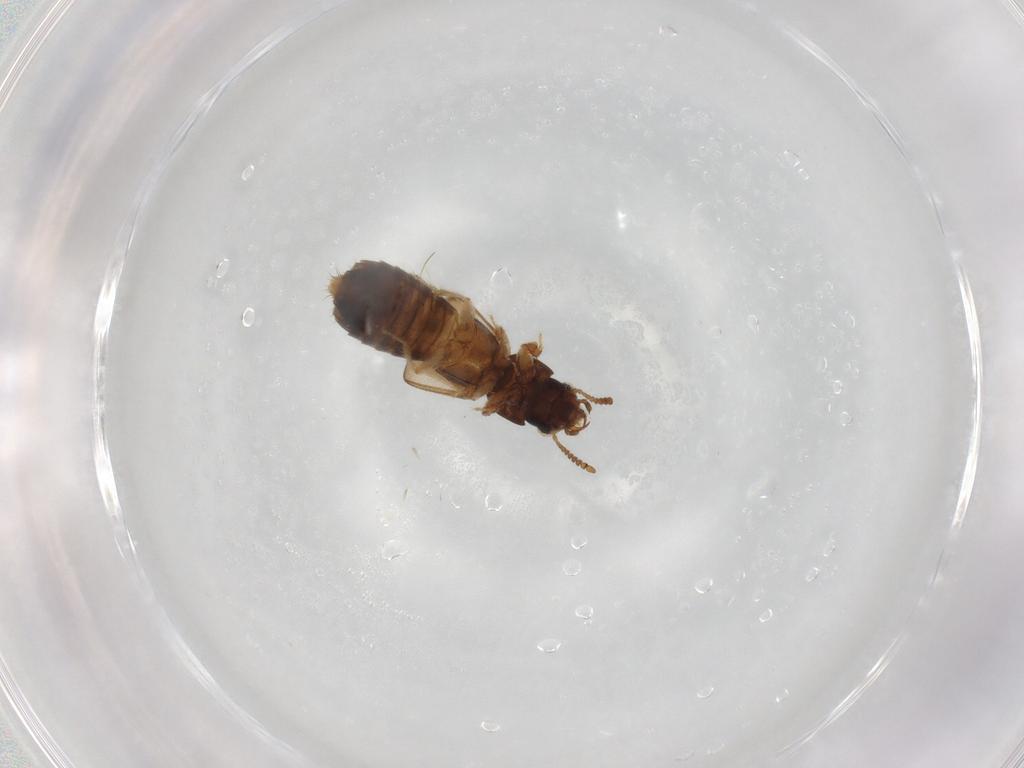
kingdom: Animalia
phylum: Arthropoda
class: Insecta
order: Coleoptera
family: Staphylinidae
